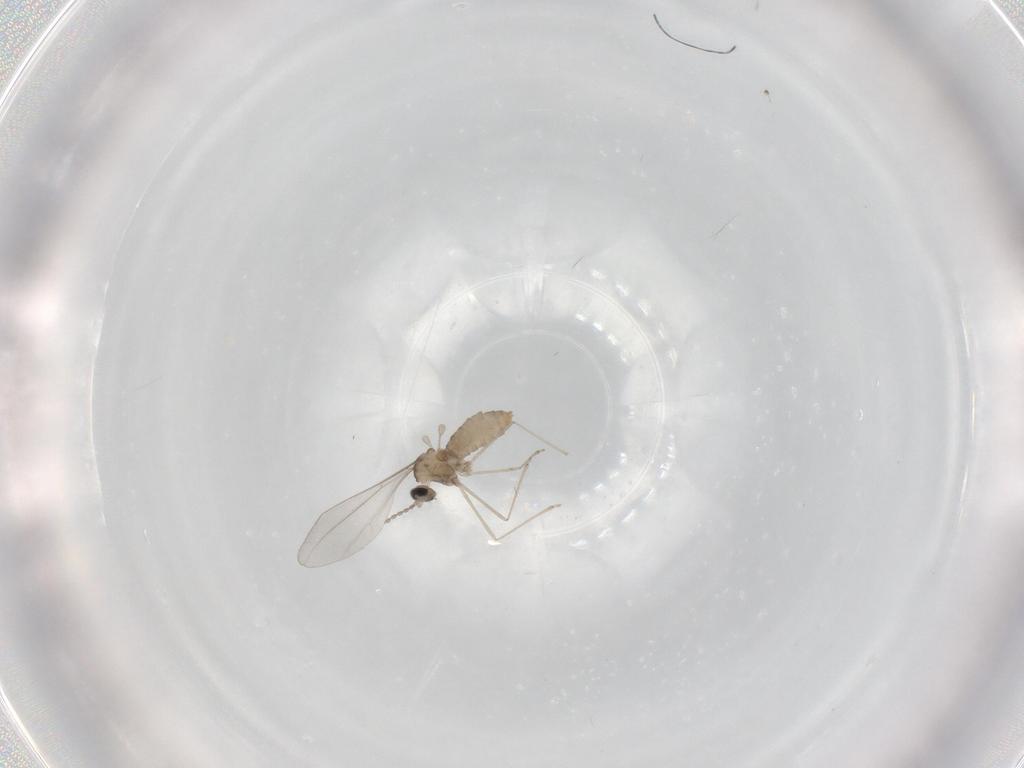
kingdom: Animalia
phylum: Arthropoda
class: Insecta
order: Diptera
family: Cecidomyiidae
